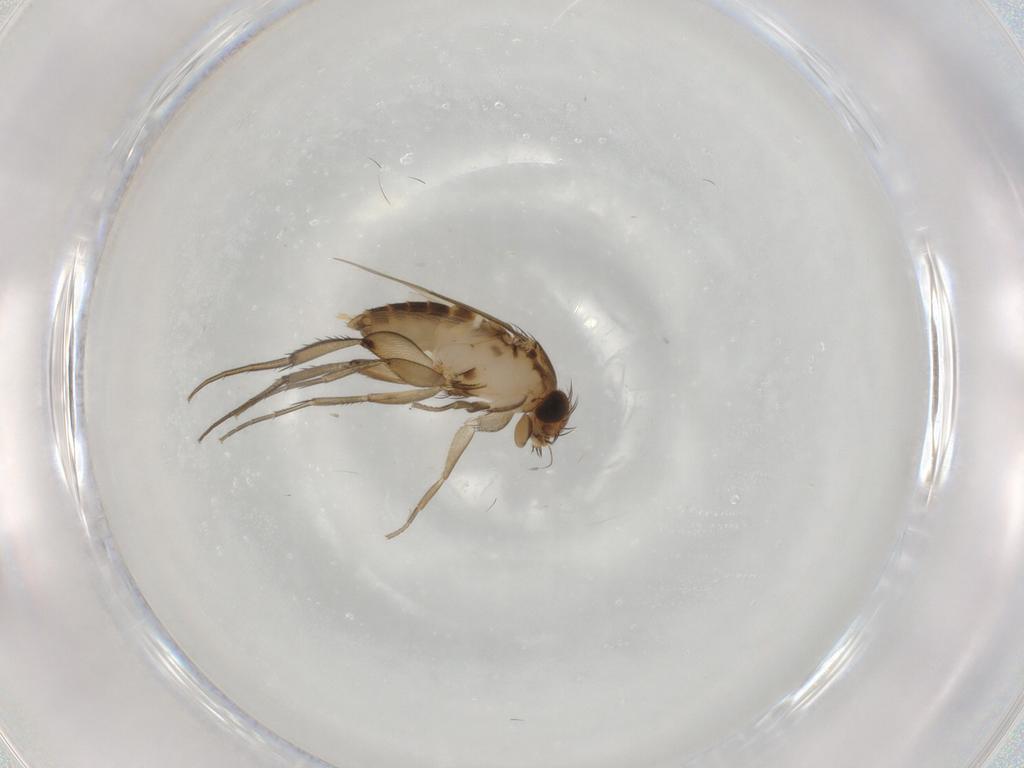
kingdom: Animalia
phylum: Arthropoda
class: Insecta
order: Diptera
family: Phoridae
